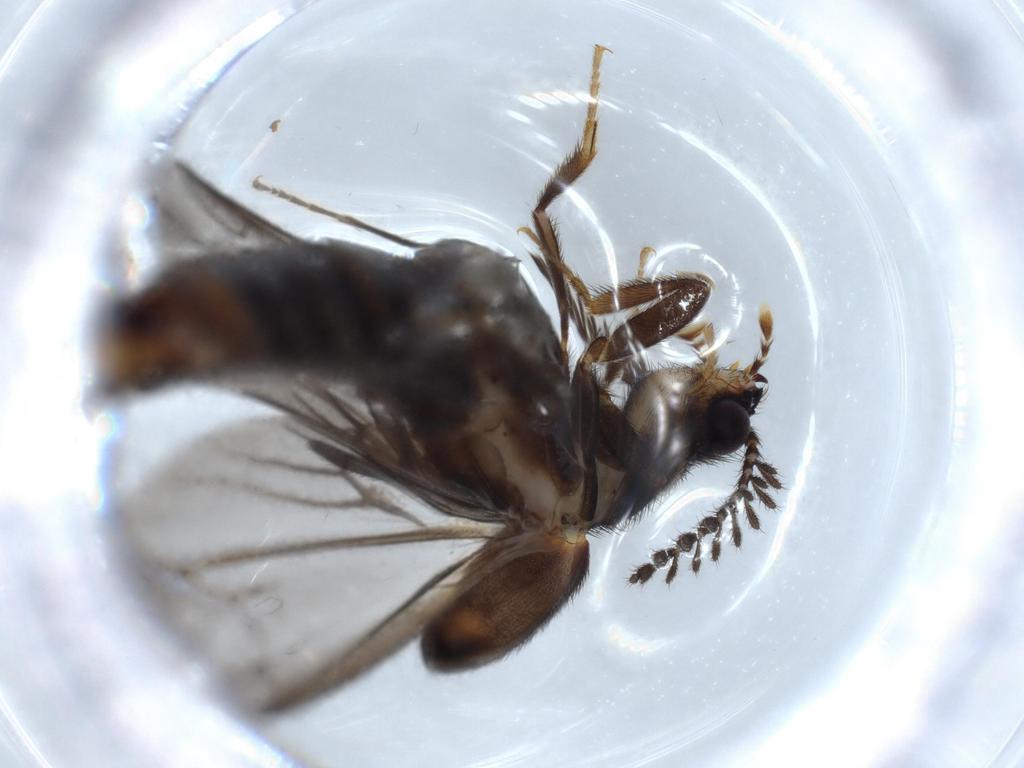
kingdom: Animalia
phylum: Arthropoda
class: Insecta
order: Coleoptera
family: Phengodidae
